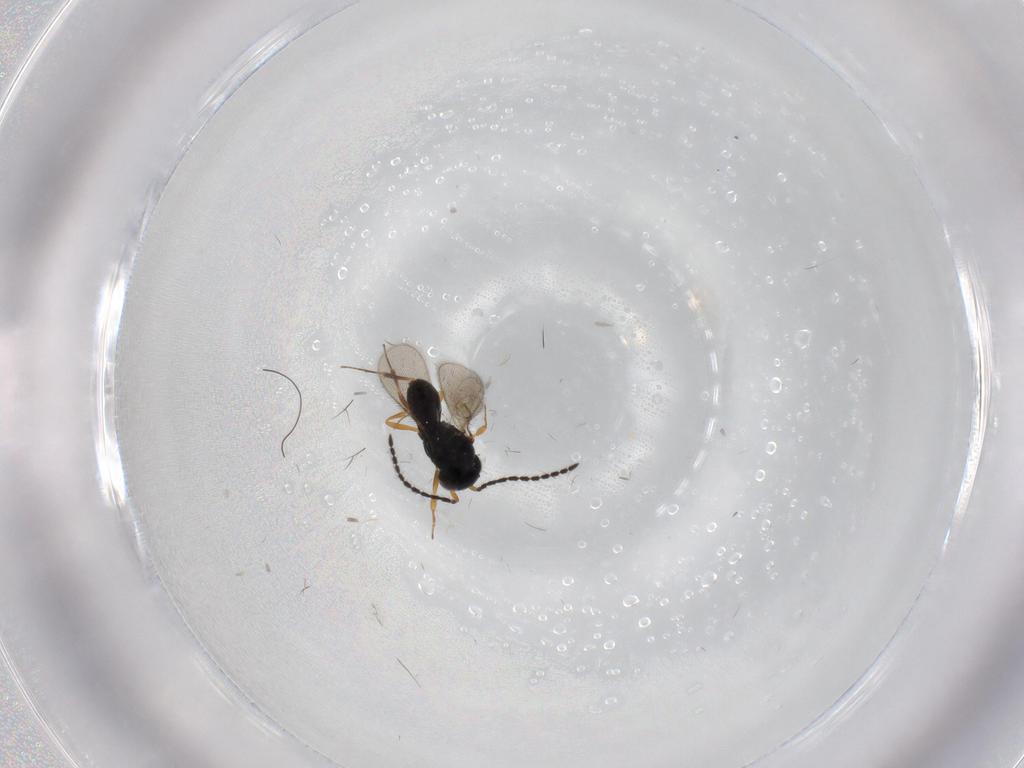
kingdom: Animalia
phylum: Arthropoda
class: Insecta
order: Hymenoptera
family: Scelionidae
